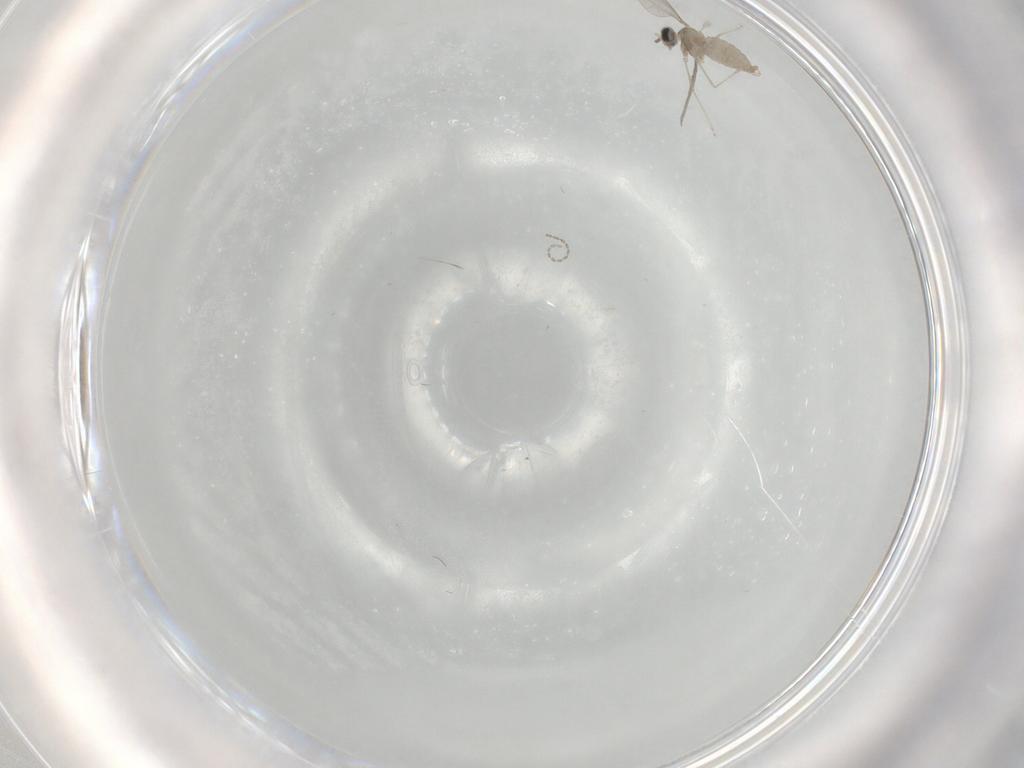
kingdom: Animalia
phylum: Arthropoda
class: Insecta
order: Diptera
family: Cecidomyiidae
